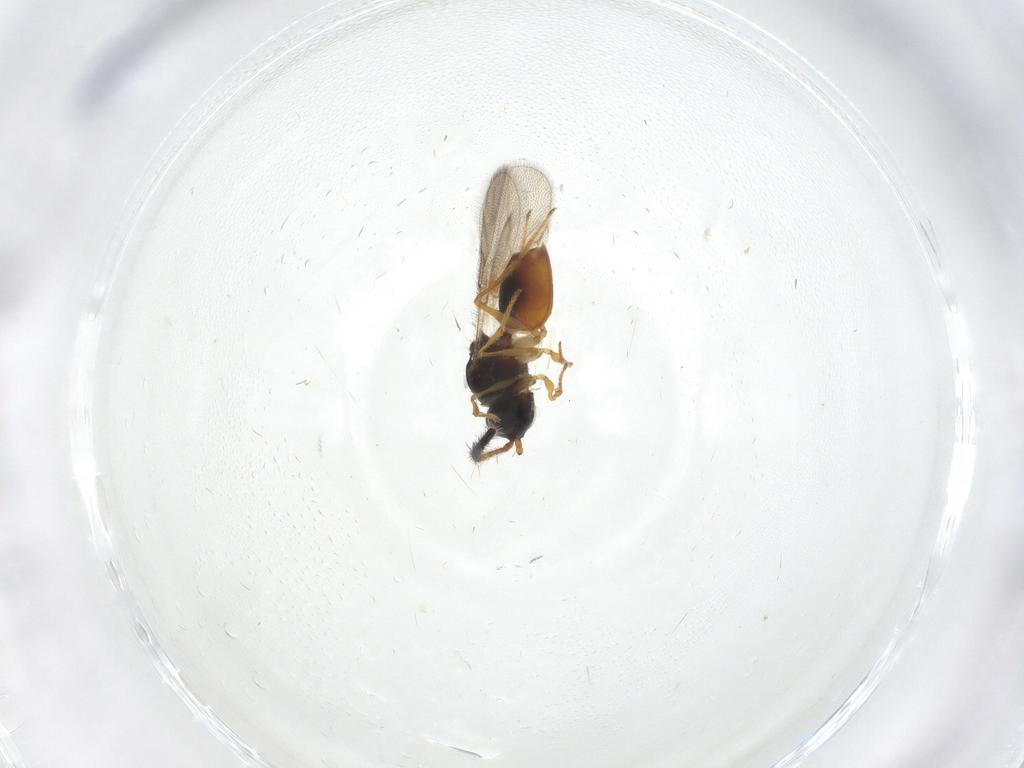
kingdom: Animalia
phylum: Arthropoda
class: Insecta
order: Hymenoptera
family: Figitidae
